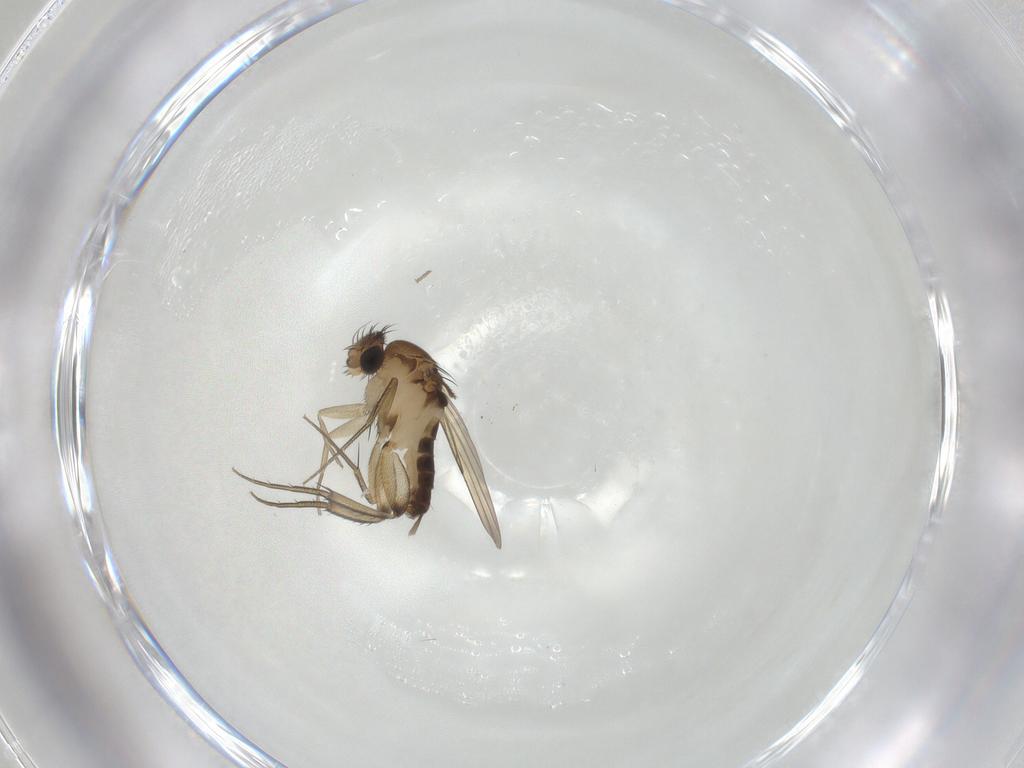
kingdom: Animalia
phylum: Arthropoda
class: Insecta
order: Diptera
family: Phoridae
